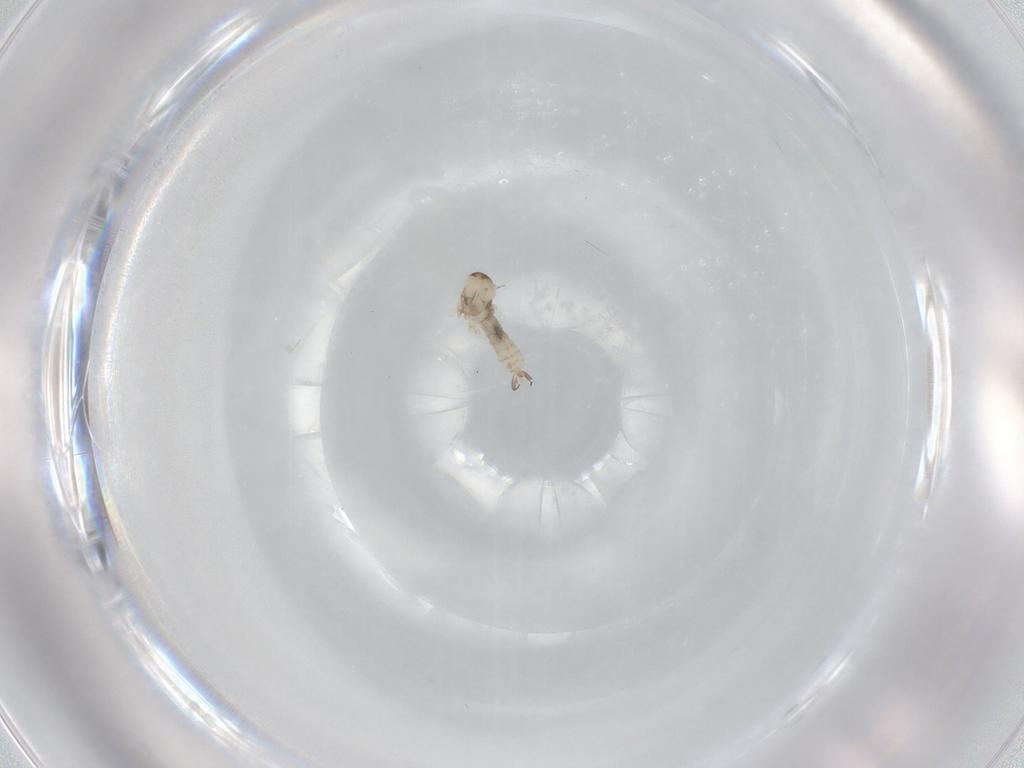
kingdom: Animalia
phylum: Arthropoda
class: Insecta
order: Diptera
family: Cecidomyiidae
